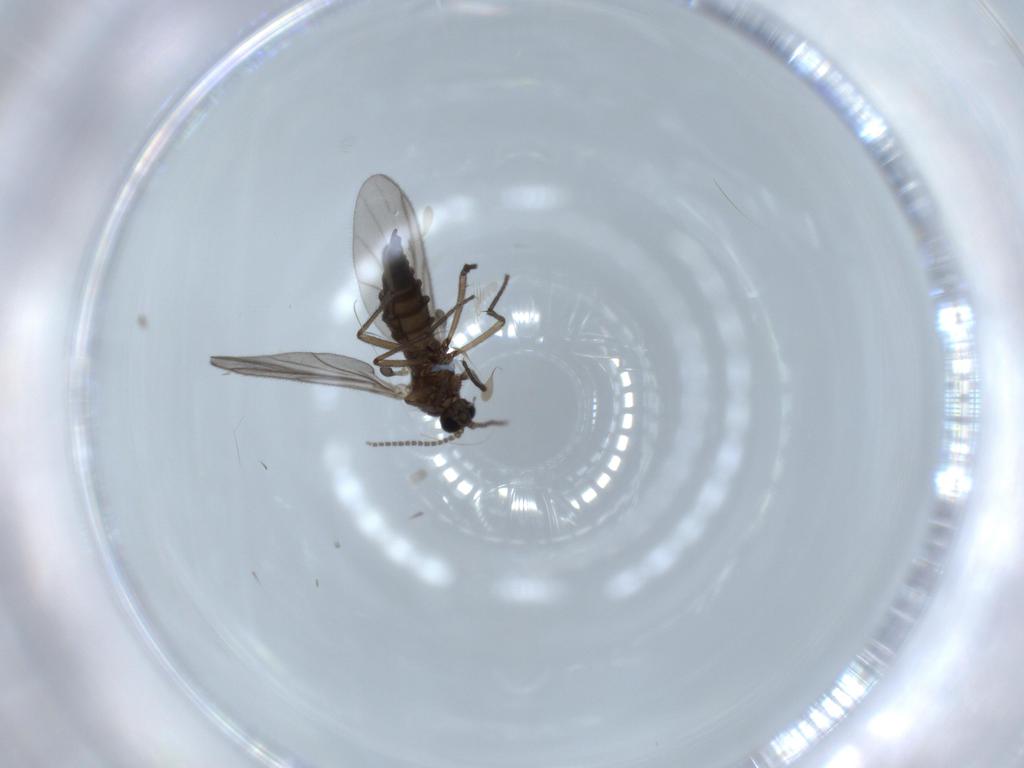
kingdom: Animalia
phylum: Arthropoda
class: Insecta
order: Diptera
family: Sciaridae
